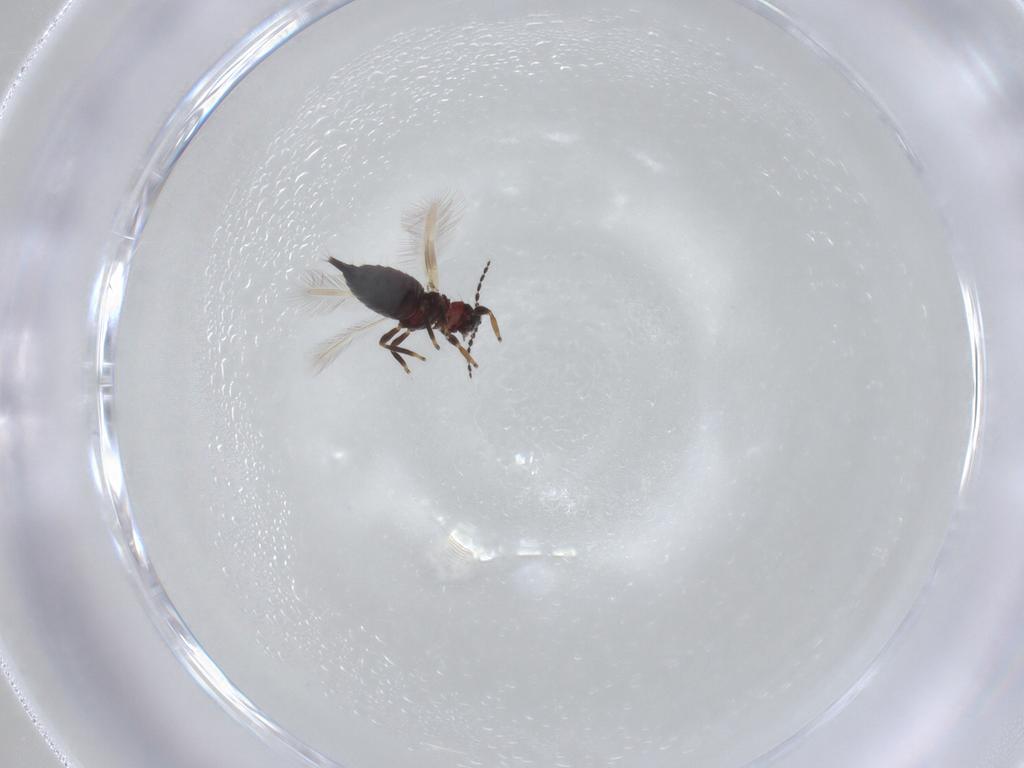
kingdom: Animalia
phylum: Arthropoda
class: Insecta
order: Thysanoptera
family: Phlaeothripidae
